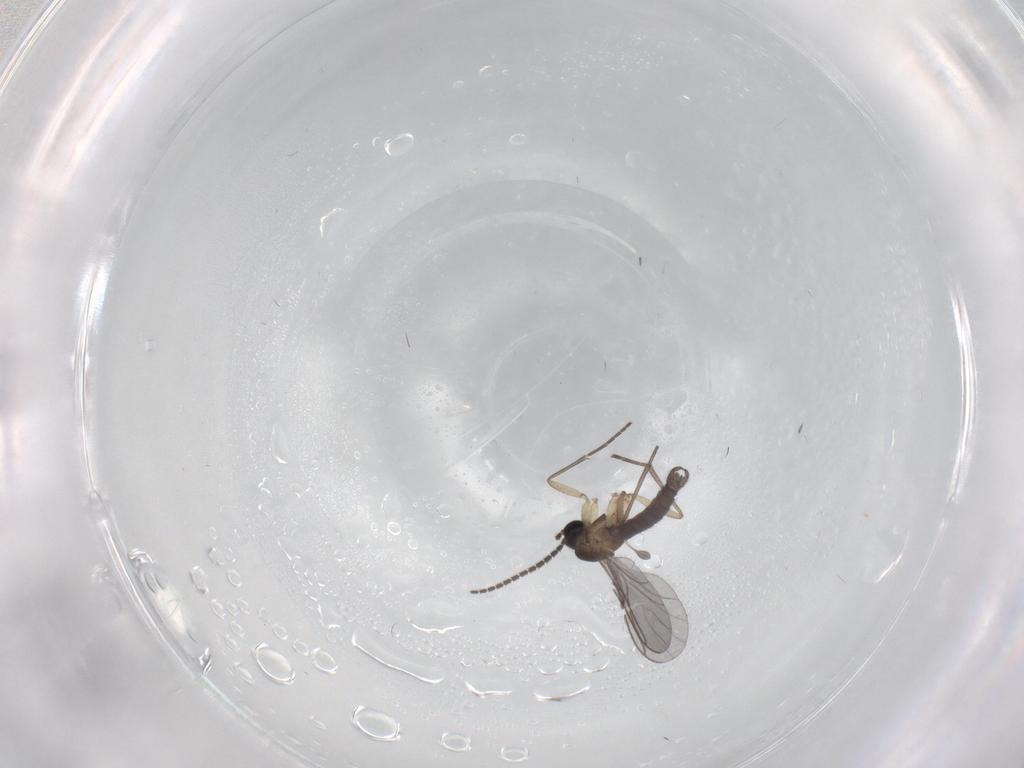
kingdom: Animalia
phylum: Arthropoda
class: Insecta
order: Diptera
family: Sciaridae
